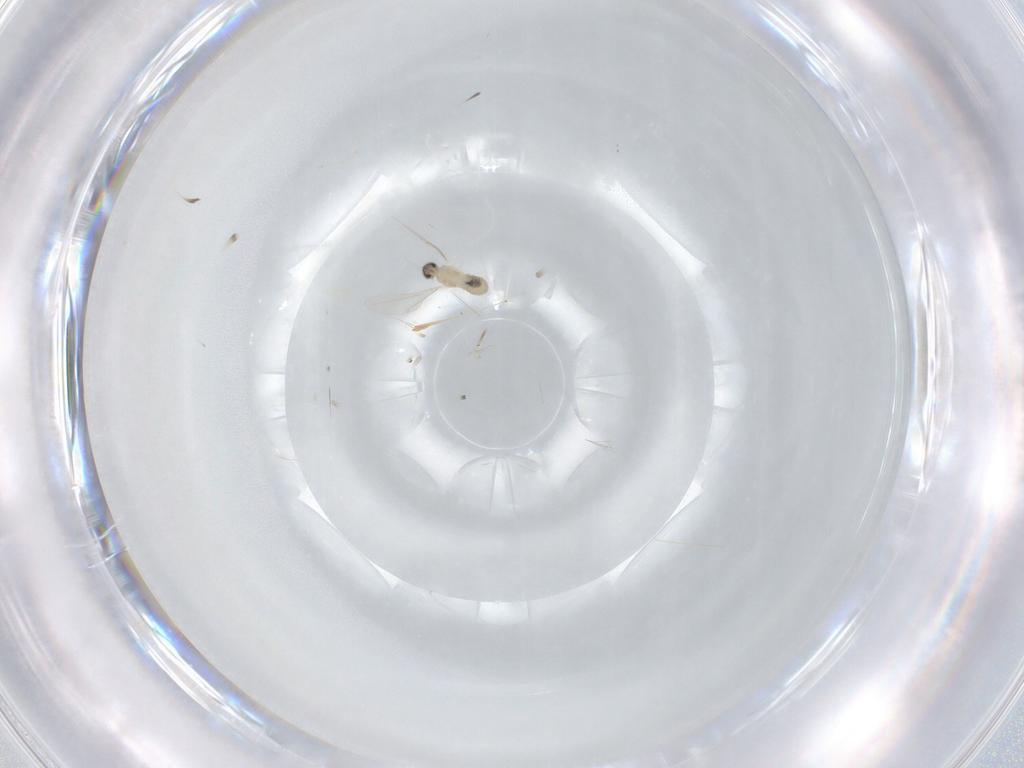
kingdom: Animalia
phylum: Arthropoda
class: Insecta
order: Diptera
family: Cecidomyiidae
